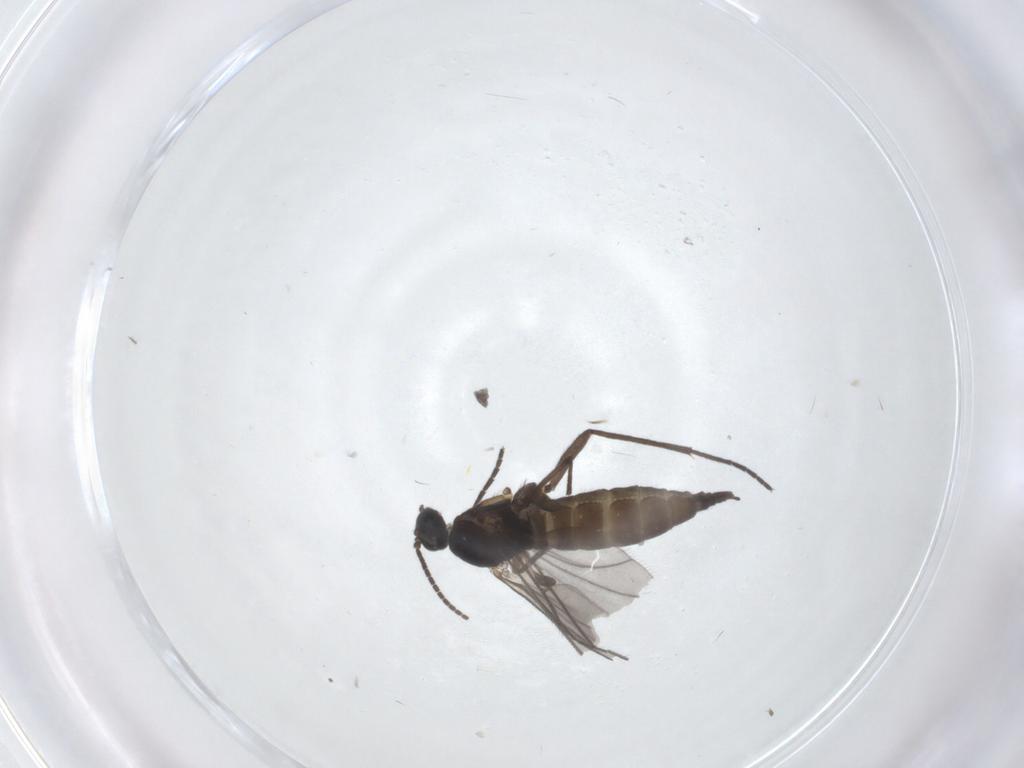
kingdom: Animalia
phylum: Arthropoda
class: Insecta
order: Diptera
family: Sciaridae
